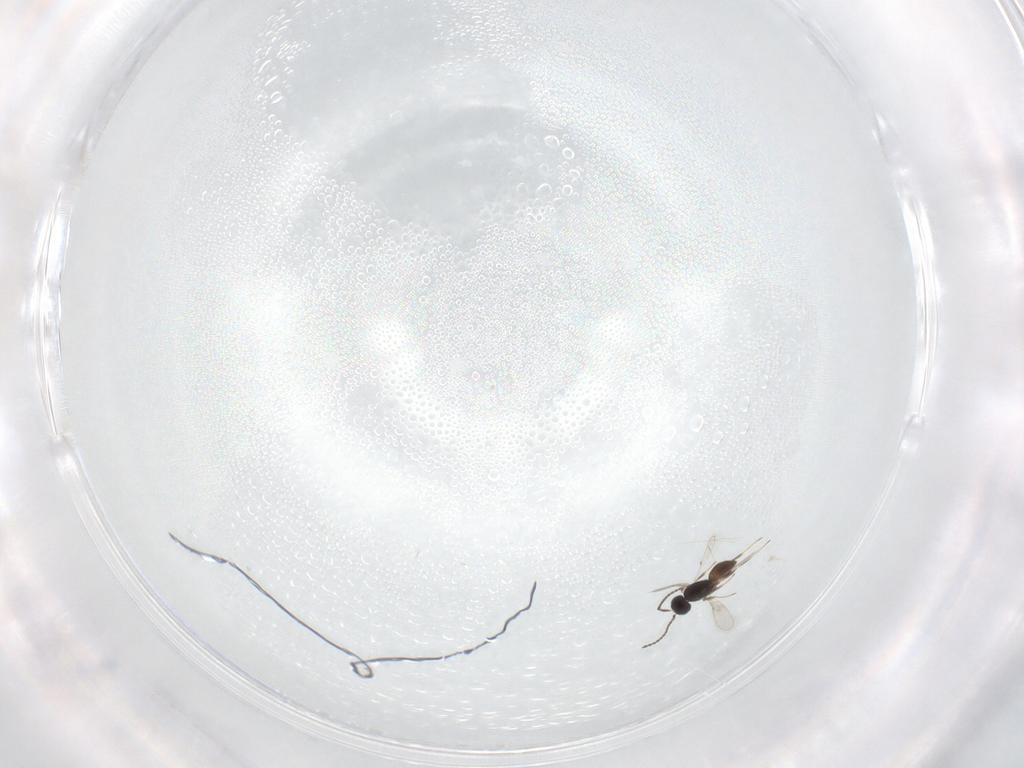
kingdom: Animalia
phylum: Arthropoda
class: Insecta
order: Hymenoptera
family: Scelionidae
